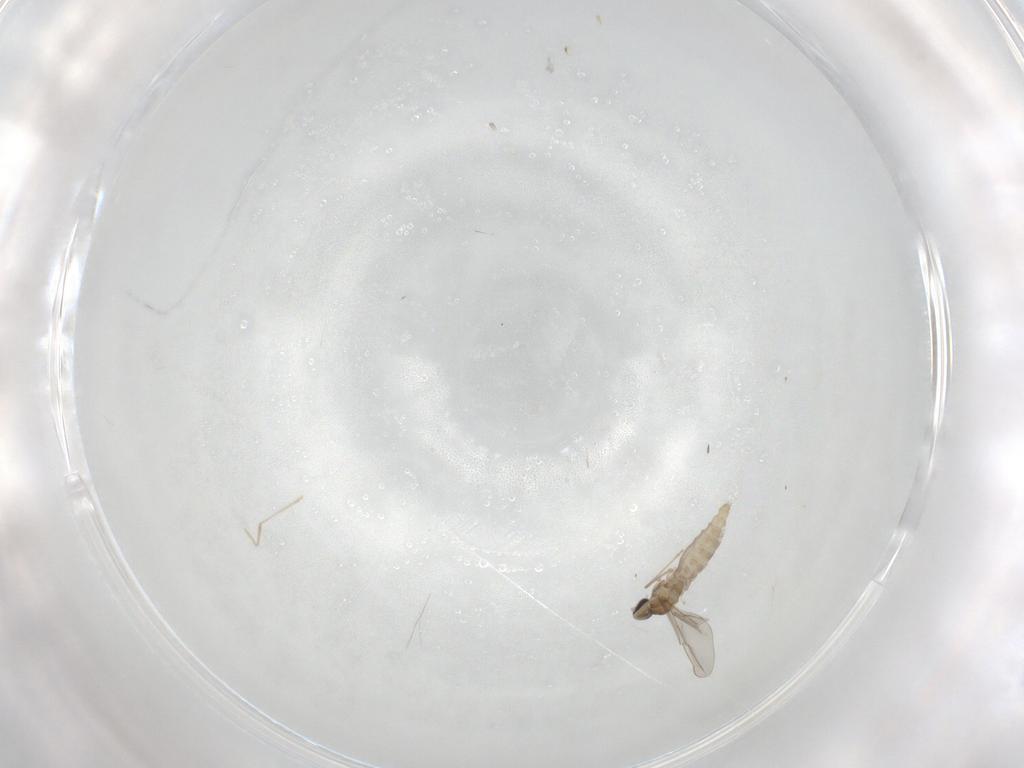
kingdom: Animalia
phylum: Arthropoda
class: Insecta
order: Diptera
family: Cecidomyiidae
